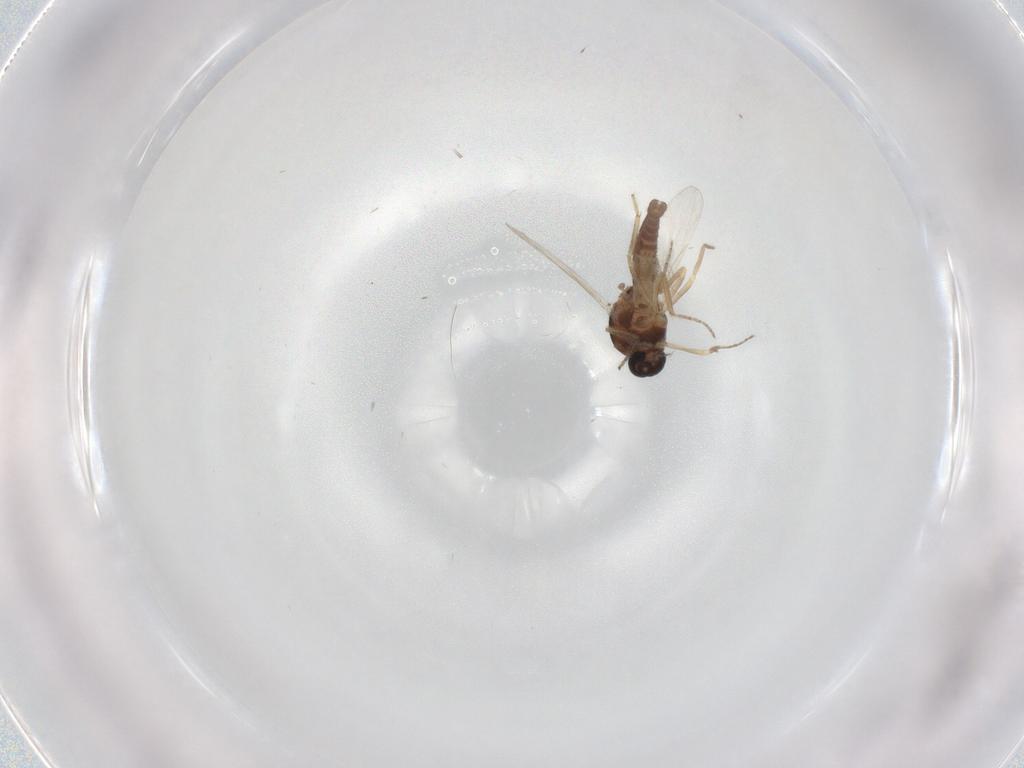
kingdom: Animalia
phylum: Arthropoda
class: Insecta
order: Diptera
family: Ceratopogonidae
